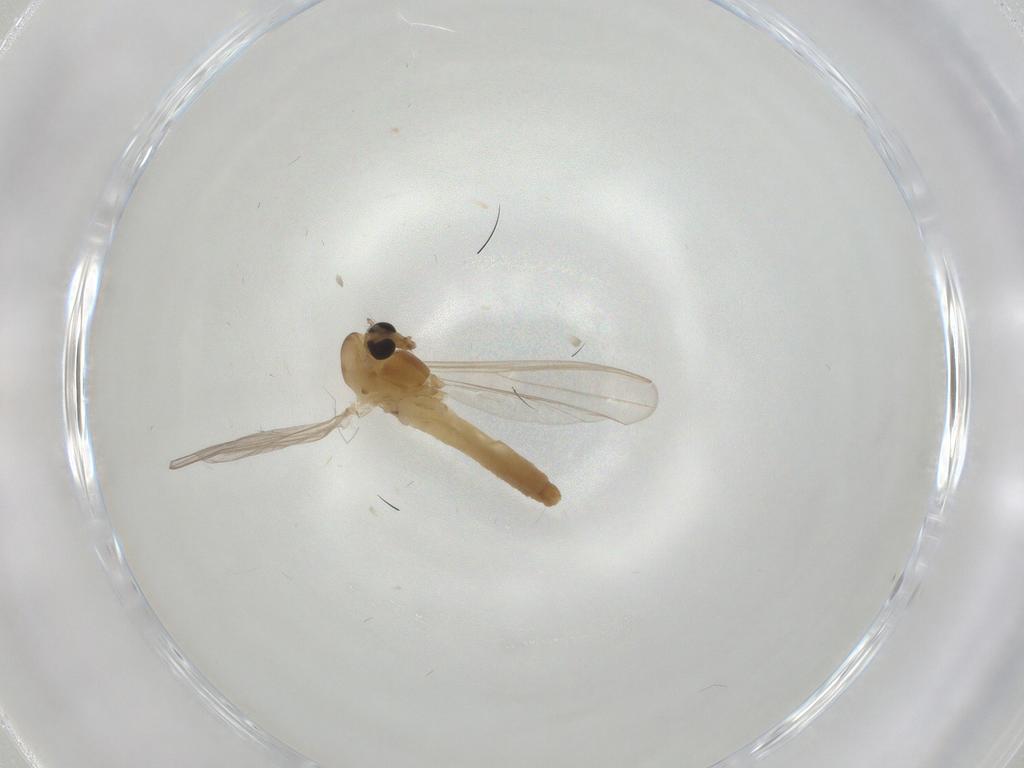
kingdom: Animalia
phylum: Arthropoda
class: Insecta
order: Diptera
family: Chironomidae
